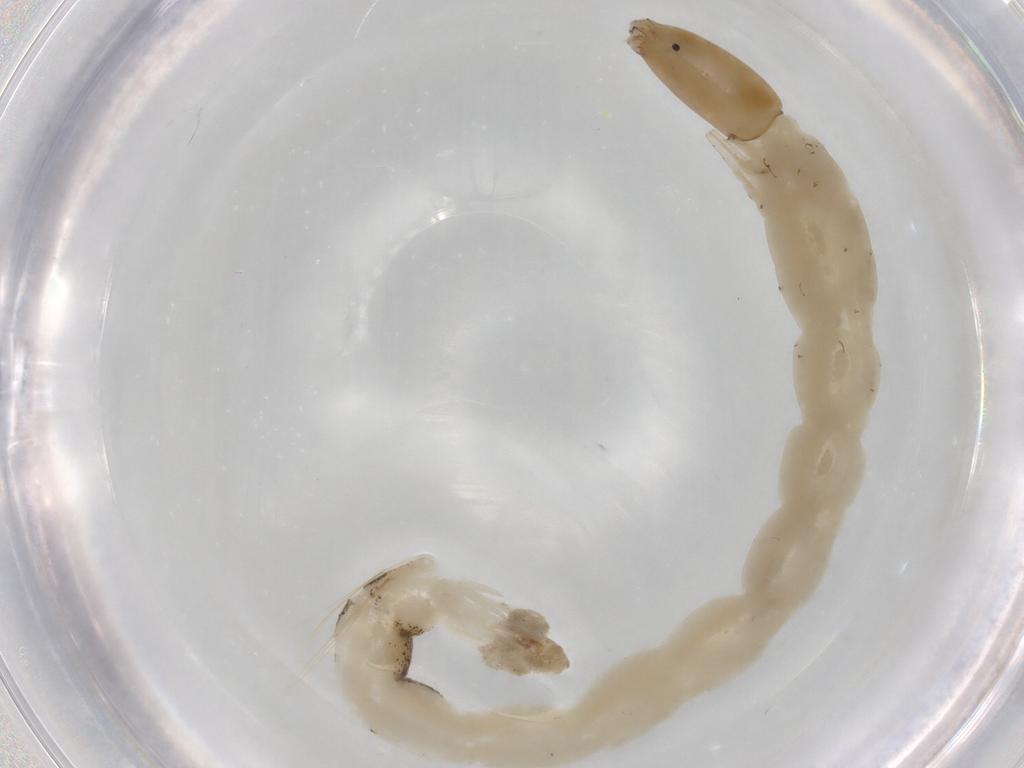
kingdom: Animalia
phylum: Arthropoda
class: Insecta
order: Diptera
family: Chironomidae
